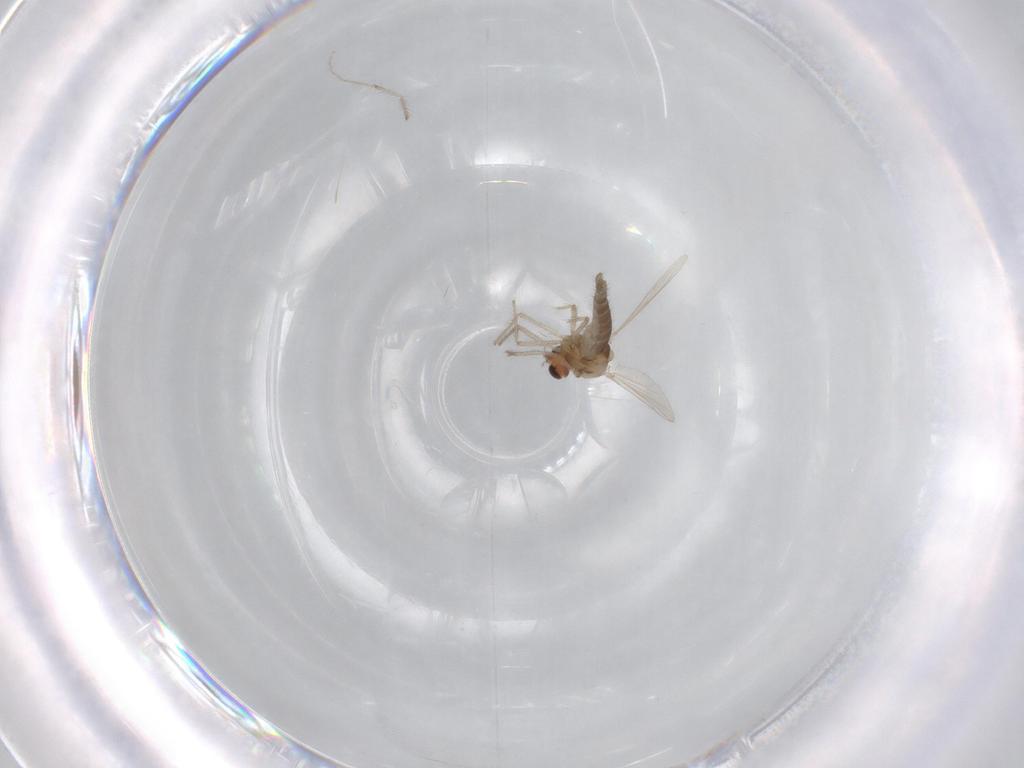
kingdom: Animalia
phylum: Arthropoda
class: Insecta
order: Diptera
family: Chironomidae
